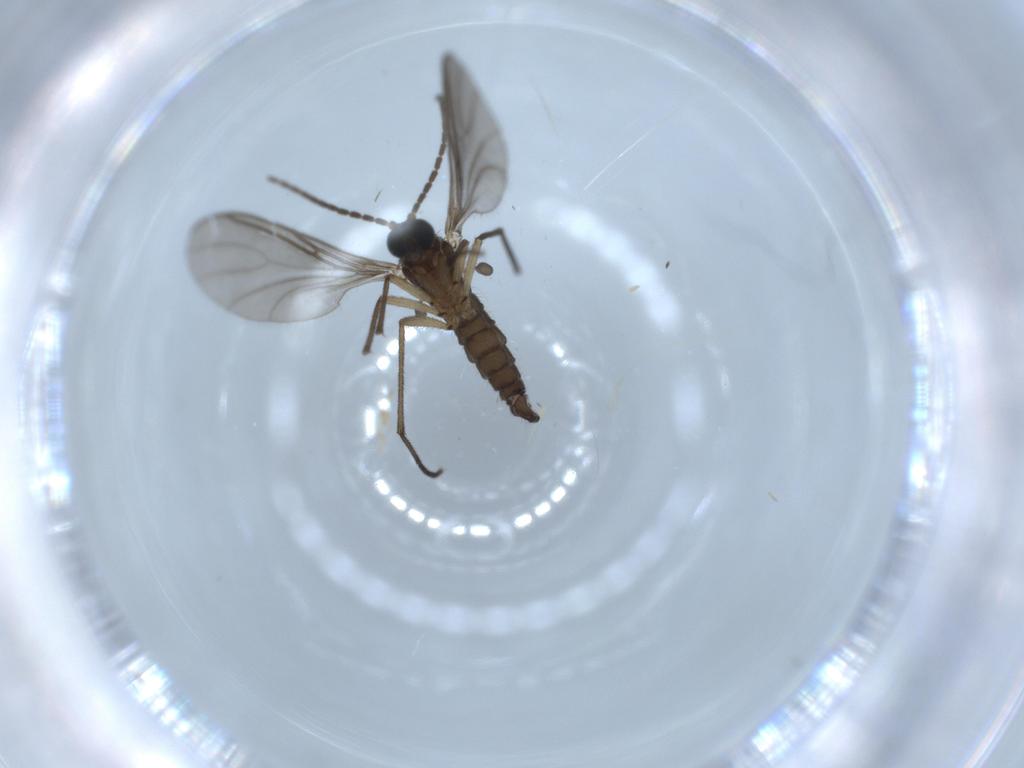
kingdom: Animalia
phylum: Arthropoda
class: Insecta
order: Diptera
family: Sciaridae
